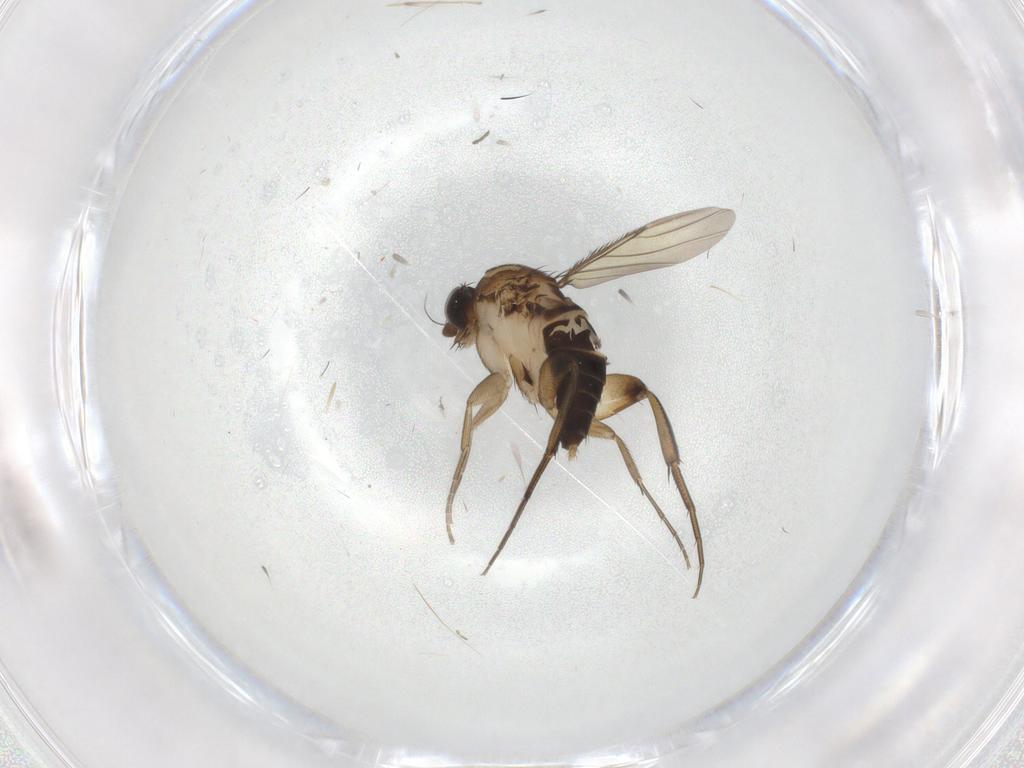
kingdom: Animalia
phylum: Arthropoda
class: Insecta
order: Diptera
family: Phoridae
